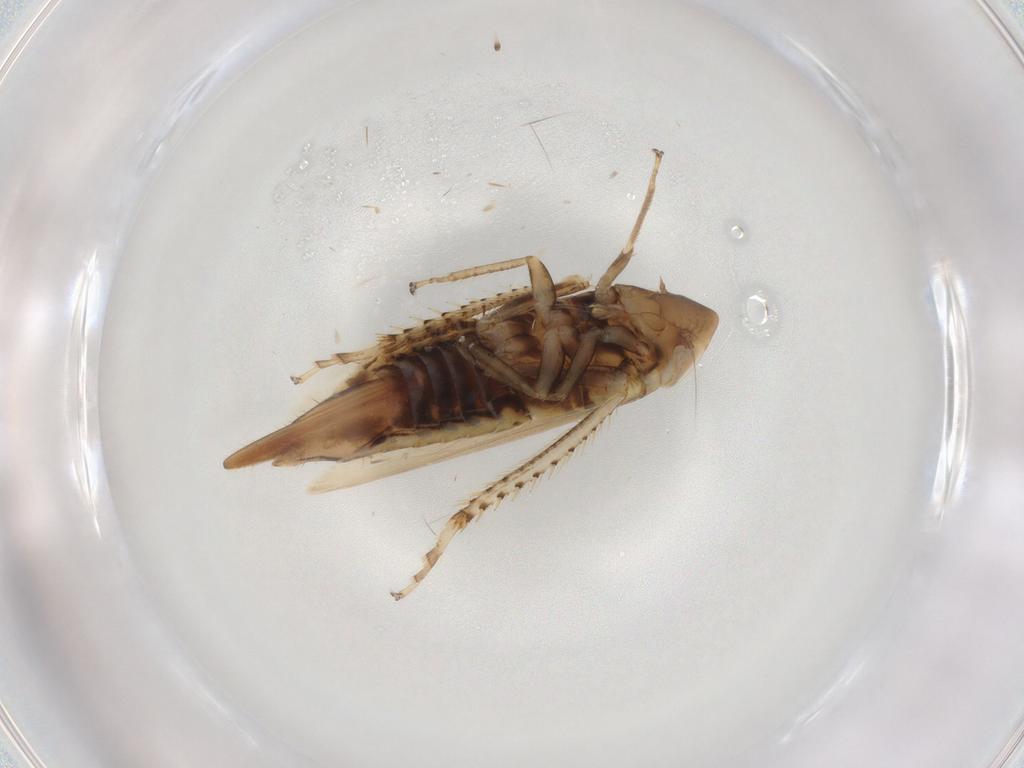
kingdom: Animalia
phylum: Arthropoda
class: Insecta
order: Hemiptera
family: Cicadellidae
